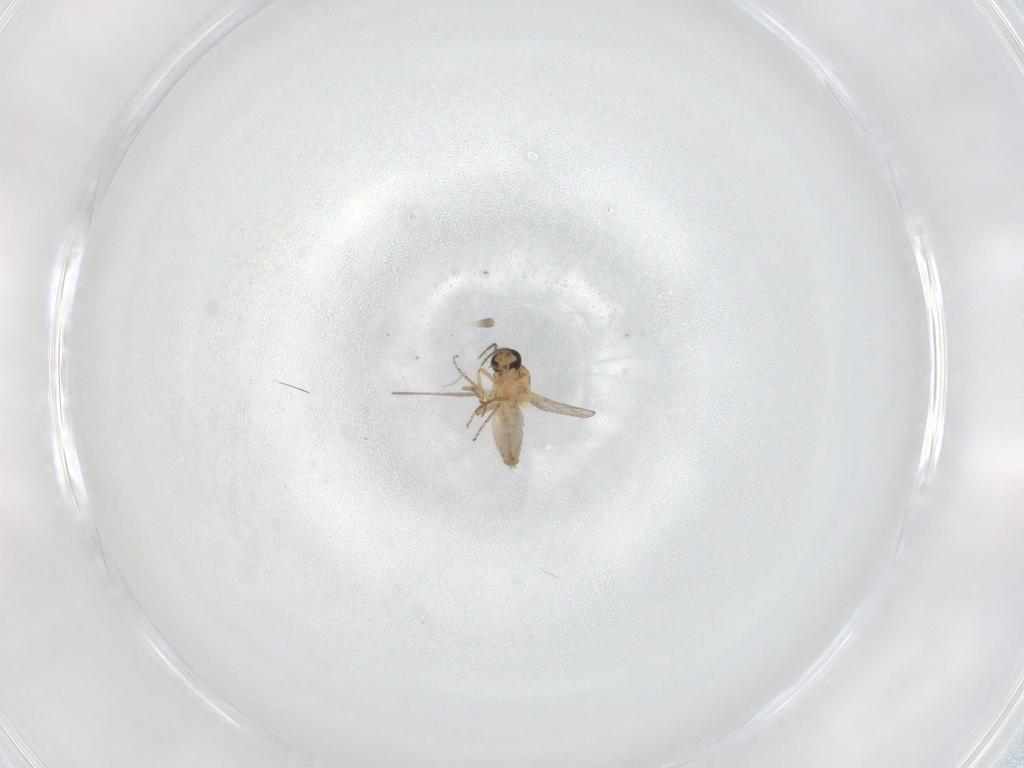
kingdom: Animalia
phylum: Arthropoda
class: Insecta
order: Diptera
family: Ceratopogonidae
